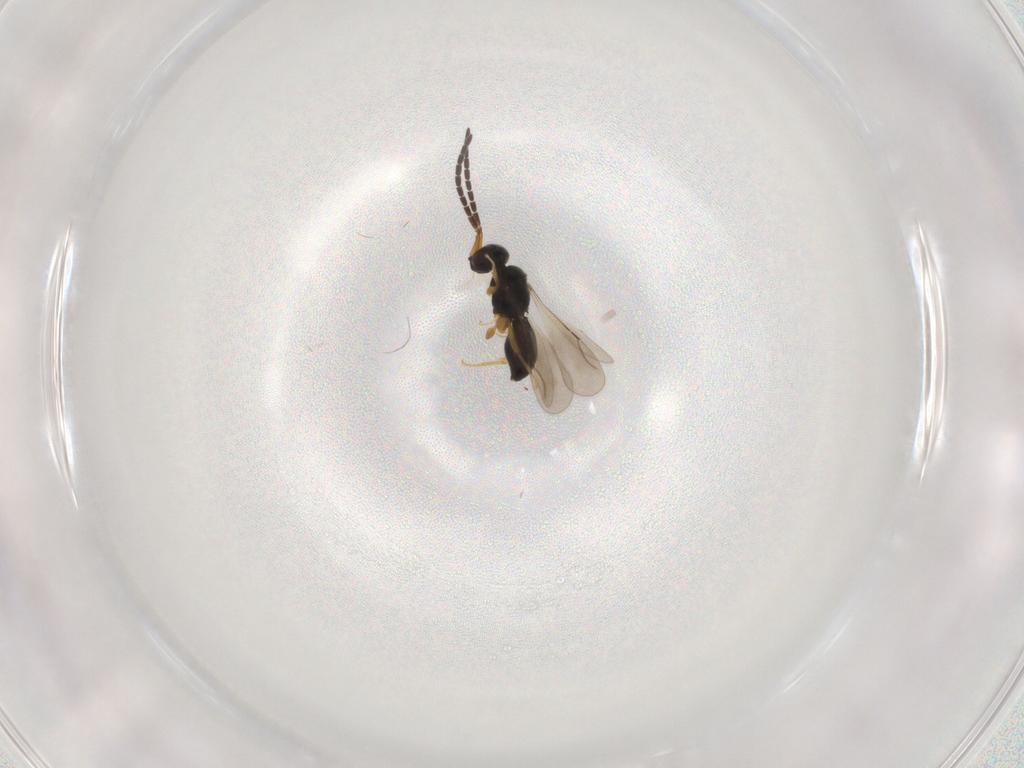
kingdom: Animalia
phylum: Arthropoda
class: Insecta
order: Hymenoptera
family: Ceraphronidae
